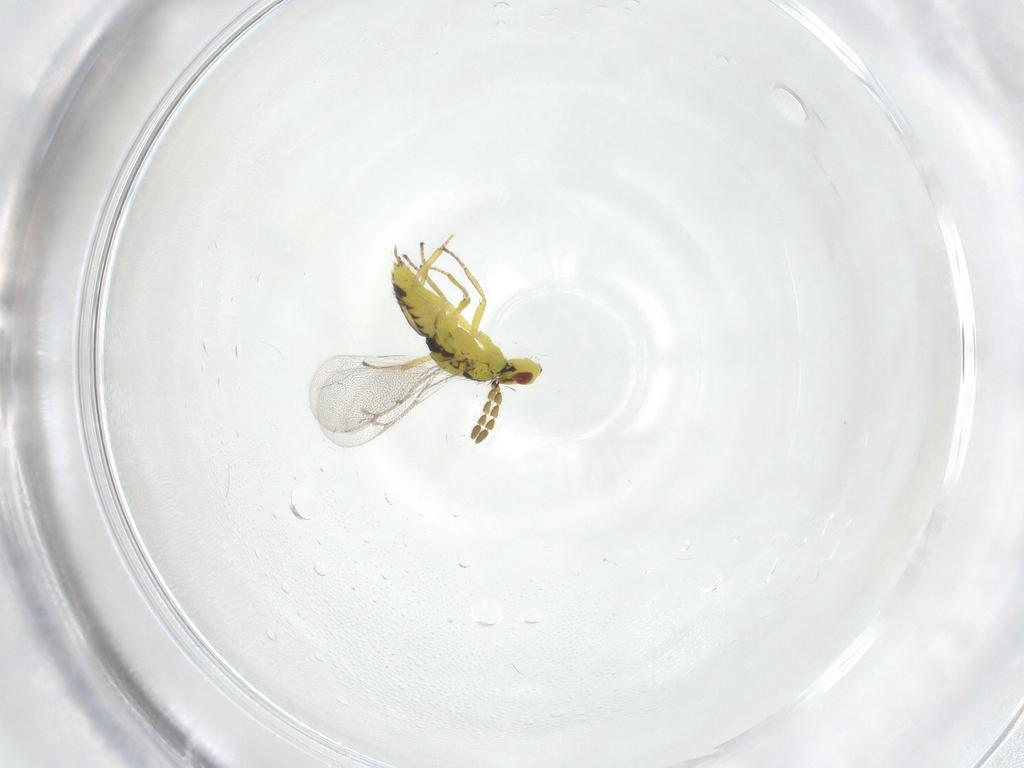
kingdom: Animalia
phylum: Arthropoda
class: Insecta
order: Hymenoptera
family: Eulophidae
